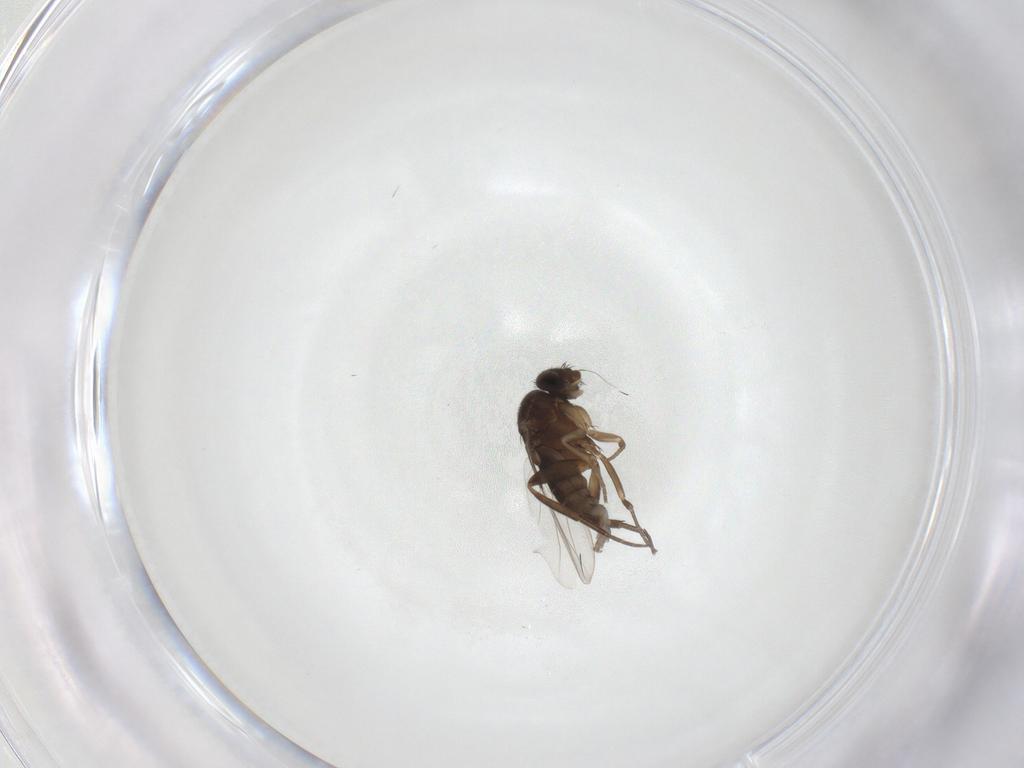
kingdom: Animalia
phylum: Arthropoda
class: Insecta
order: Diptera
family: Phoridae
